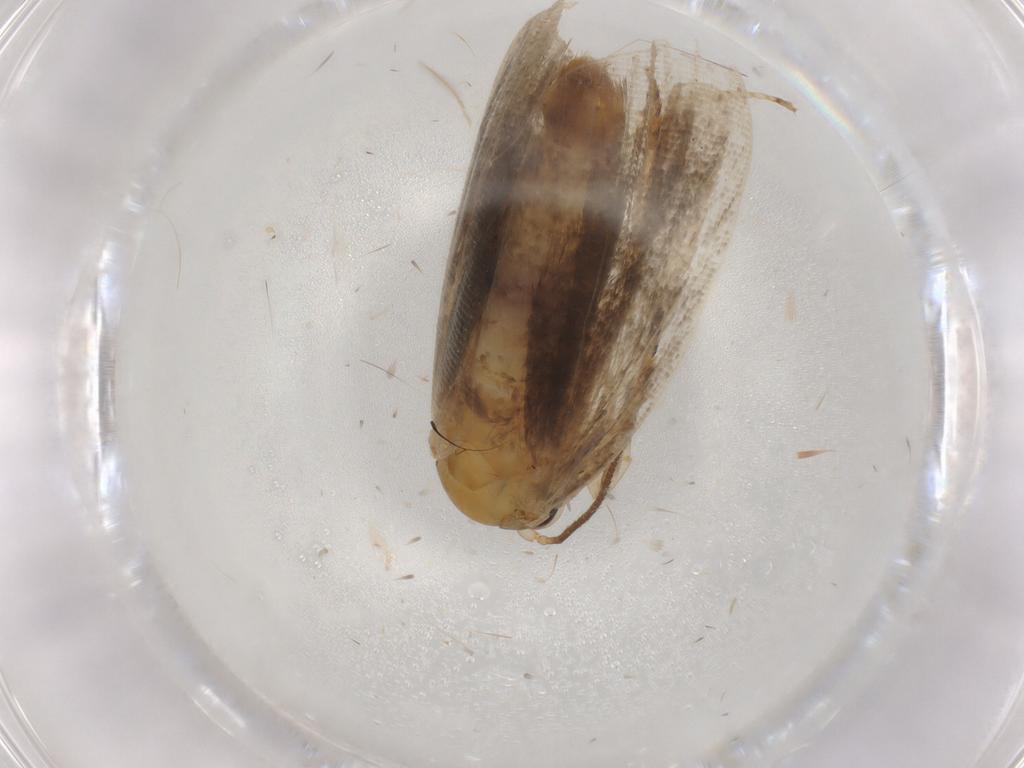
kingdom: Animalia
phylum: Arthropoda
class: Insecta
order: Lepidoptera
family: Tortricidae
